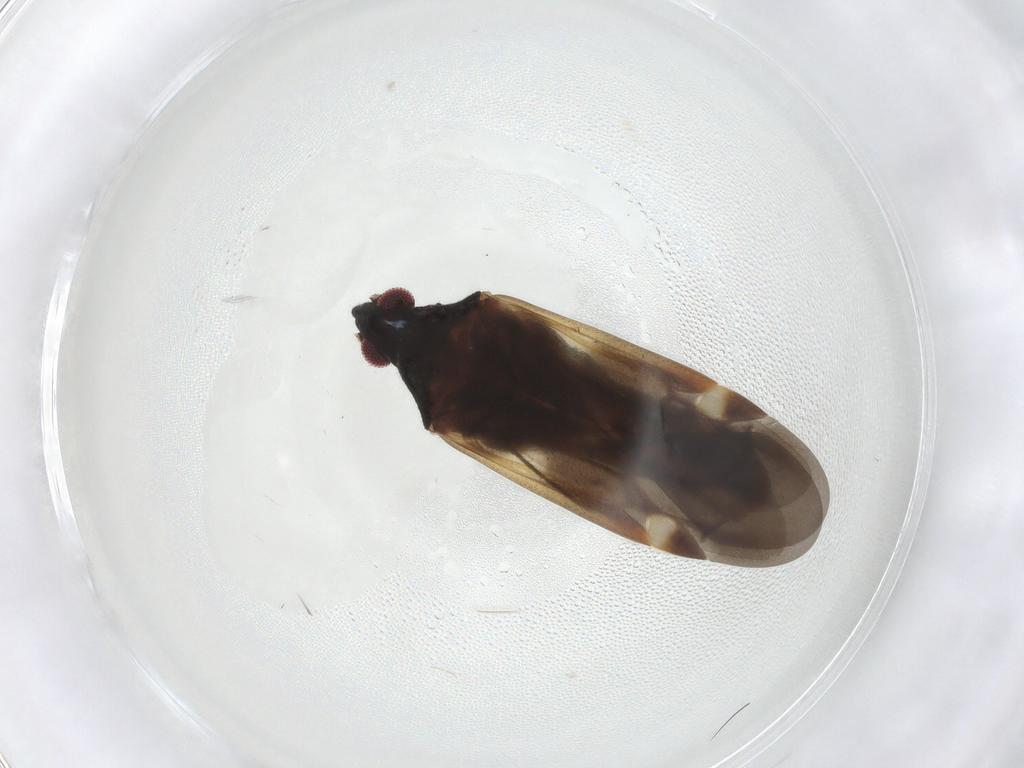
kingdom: Animalia
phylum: Arthropoda
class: Insecta
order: Hemiptera
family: Miridae
